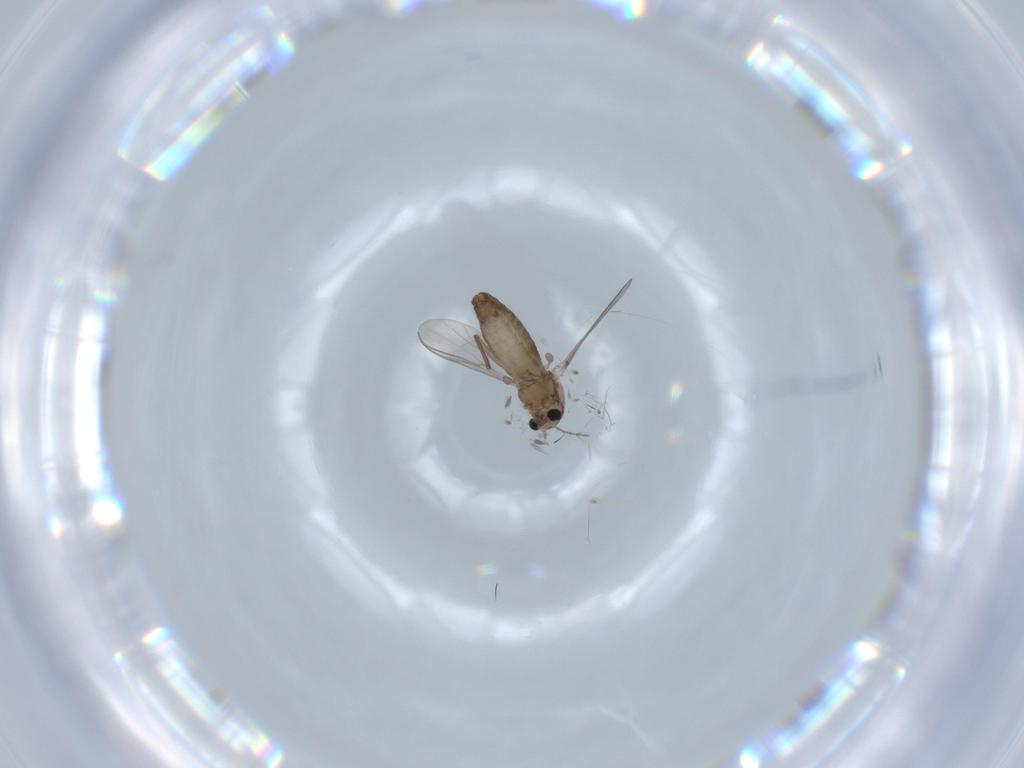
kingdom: Animalia
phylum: Arthropoda
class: Insecta
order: Diptera
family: Chironomidae
